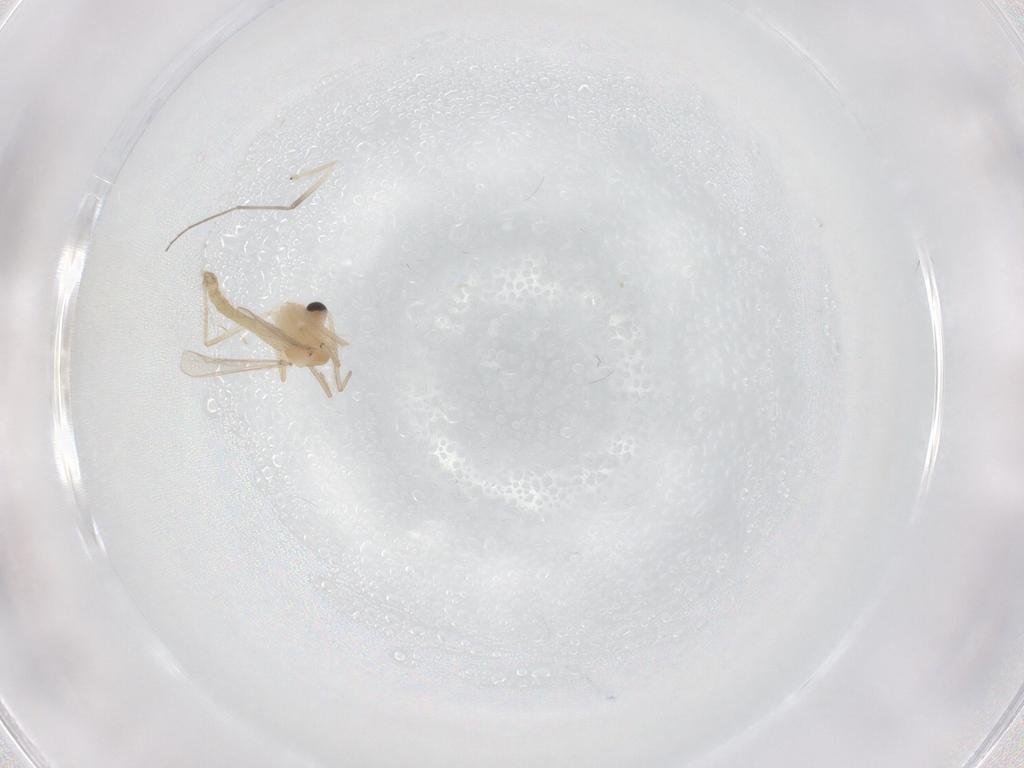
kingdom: Animalia
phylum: Arthropoda
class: Insecta
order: Diptera
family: Chironomidae
